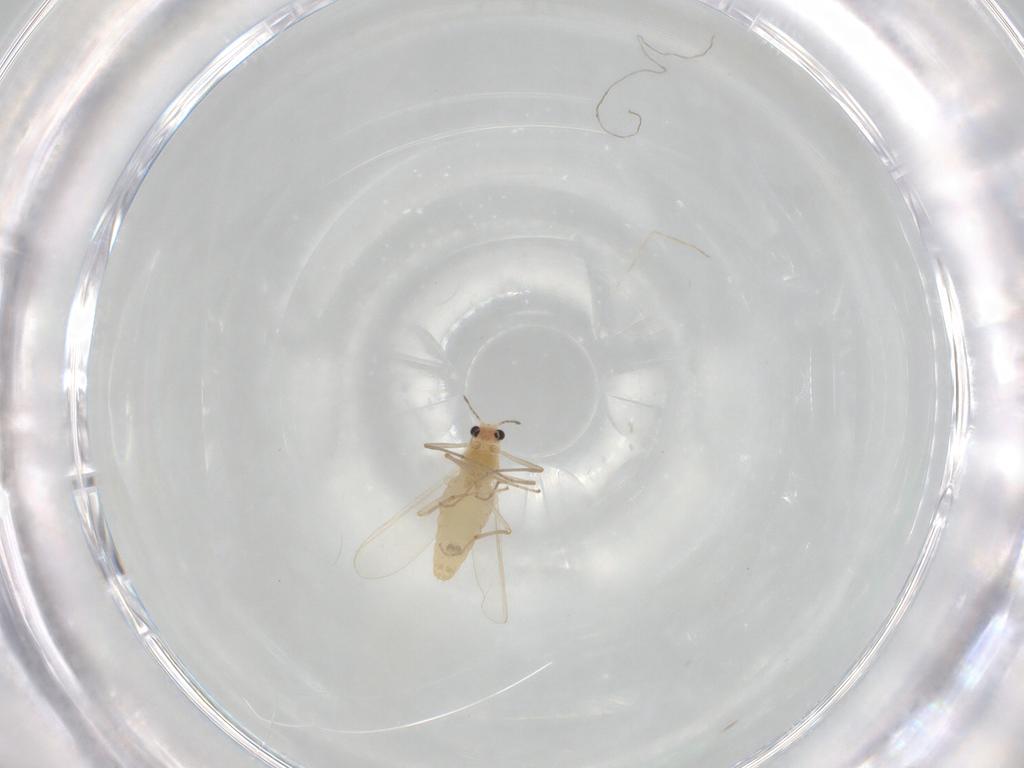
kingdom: Animalia
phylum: Arthropoda
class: Insecta
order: Diptera
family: Chironomidae
